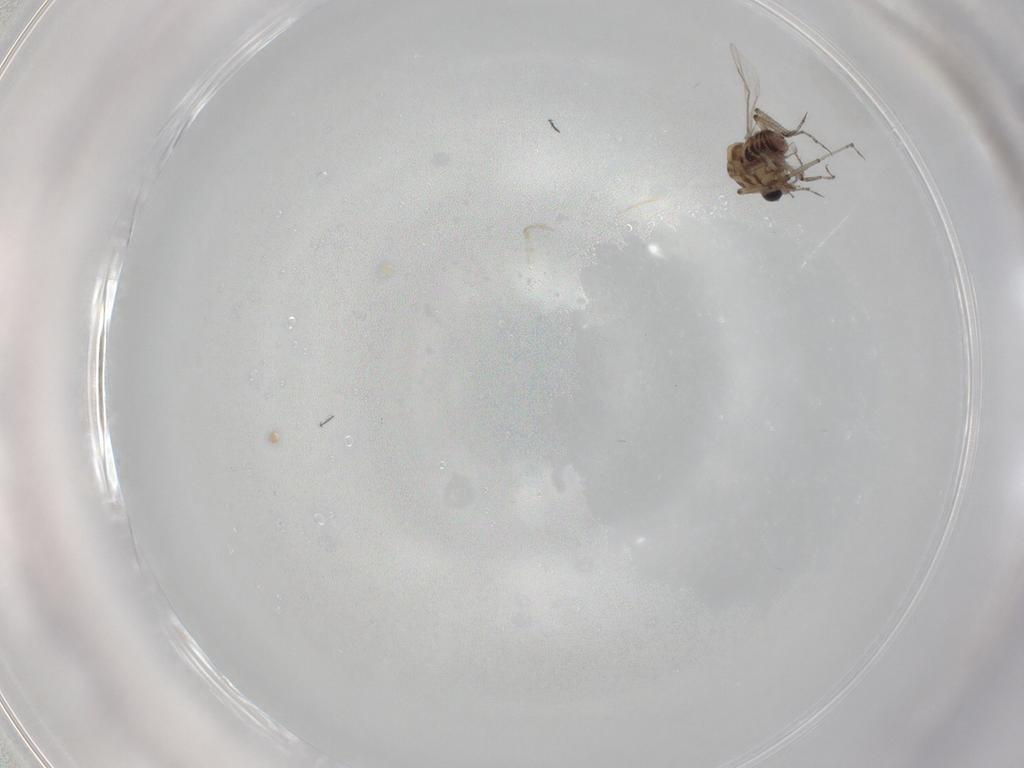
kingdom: Animalia
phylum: Arthropoda
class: Insecta
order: Diptera
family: Ceratopogonidae
